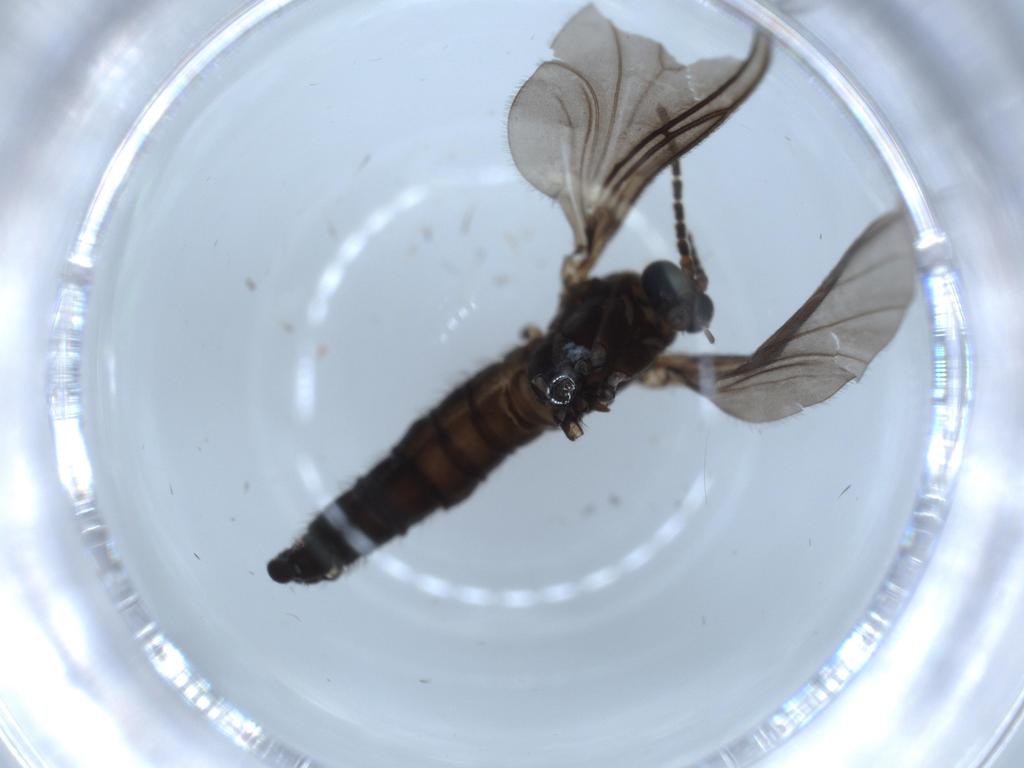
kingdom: Animalia
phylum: Arthropoda
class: Insecta
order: Diptera
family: Sciaridae
